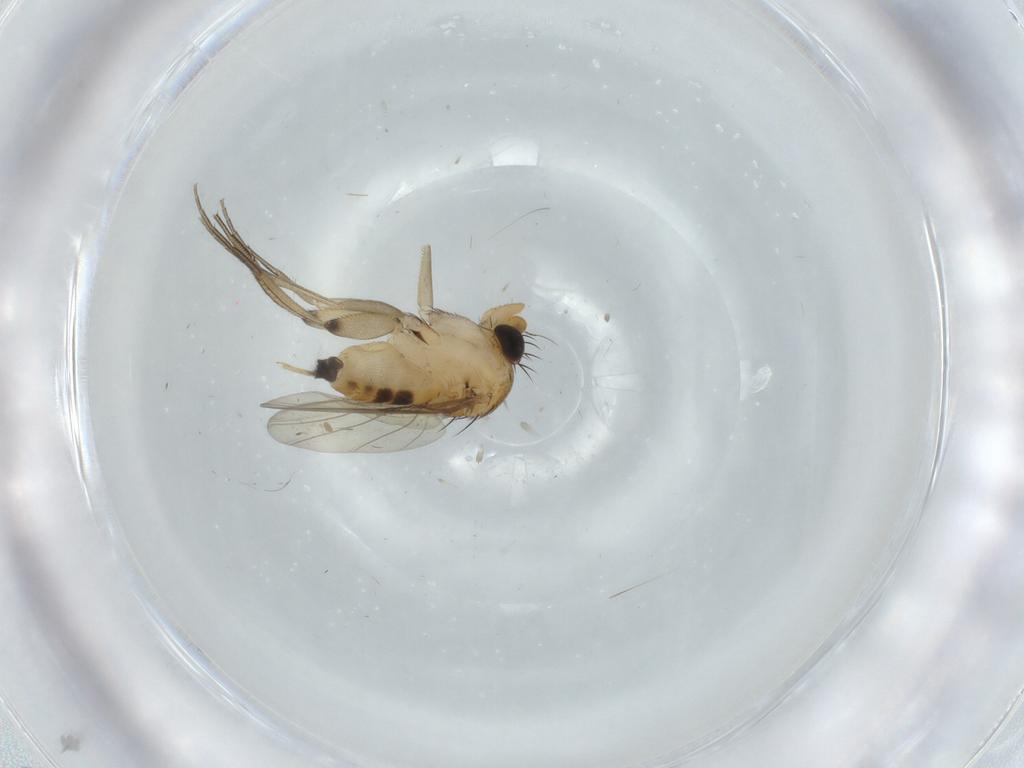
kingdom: Animalia
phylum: Arthropoda
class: Insecta
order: Diptera
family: Phoridae
